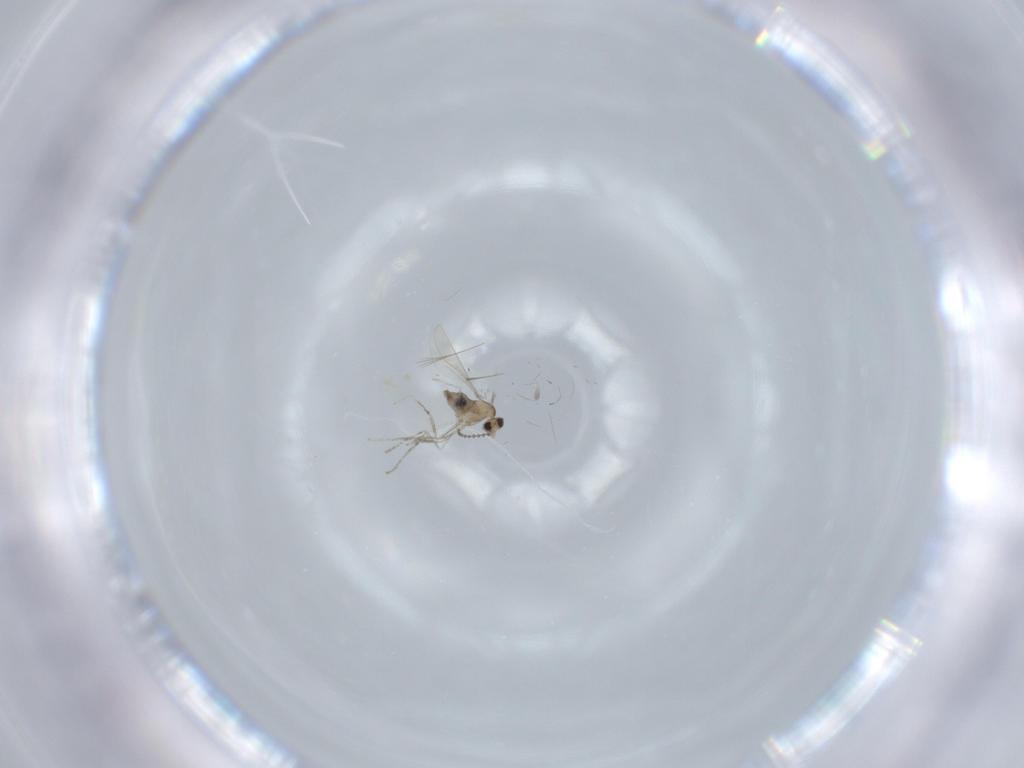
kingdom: Animalia
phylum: Arthropoda
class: Insecta
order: Diptera
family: Cecidomyiidae
